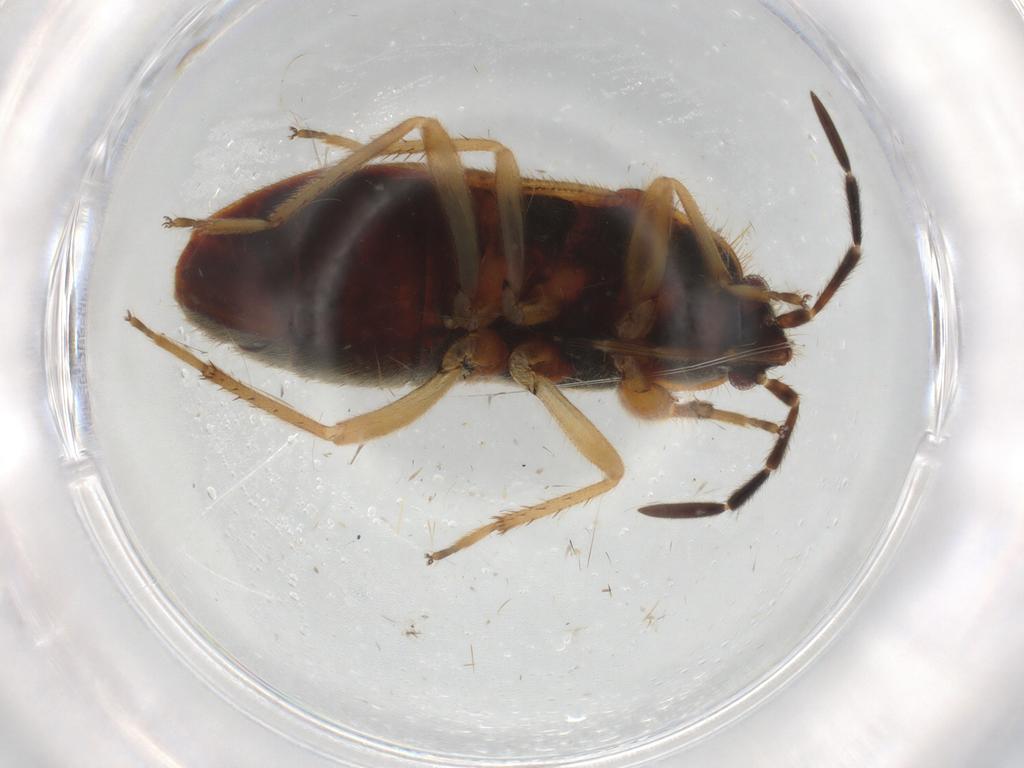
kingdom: Animalia
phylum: Arthropoda
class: Insecta
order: Hemiptera
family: Rhyparochromidae
